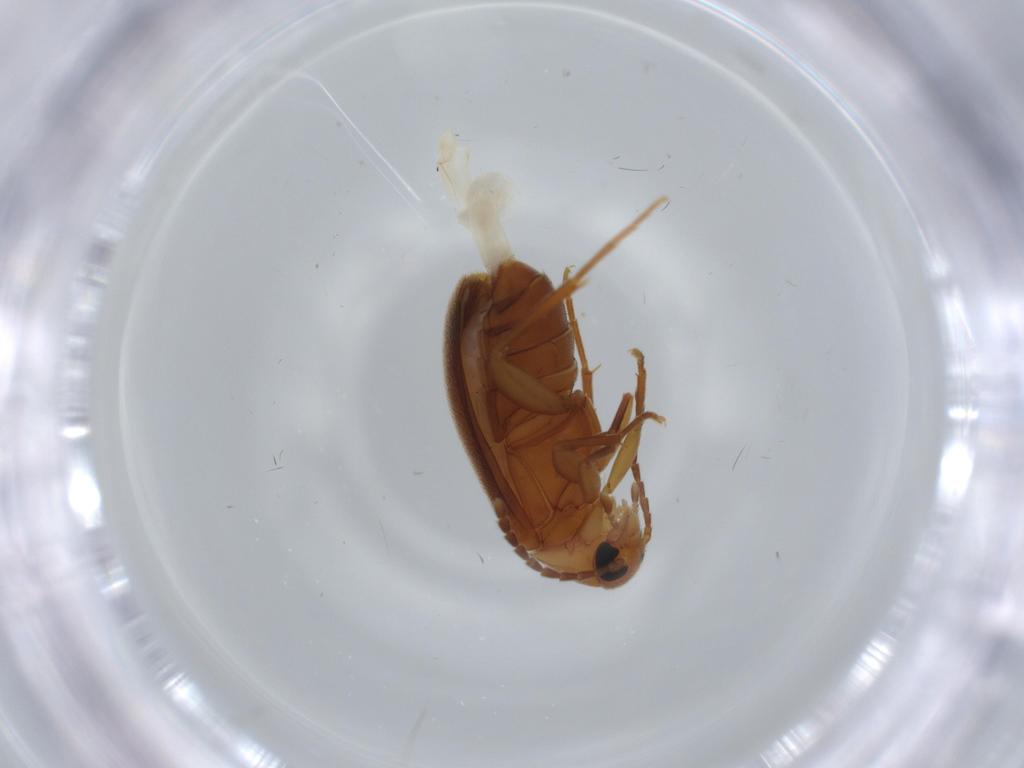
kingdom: Animalia
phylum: Arthropoda
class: Insecta
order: Coleoptera
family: Scraptiidae
